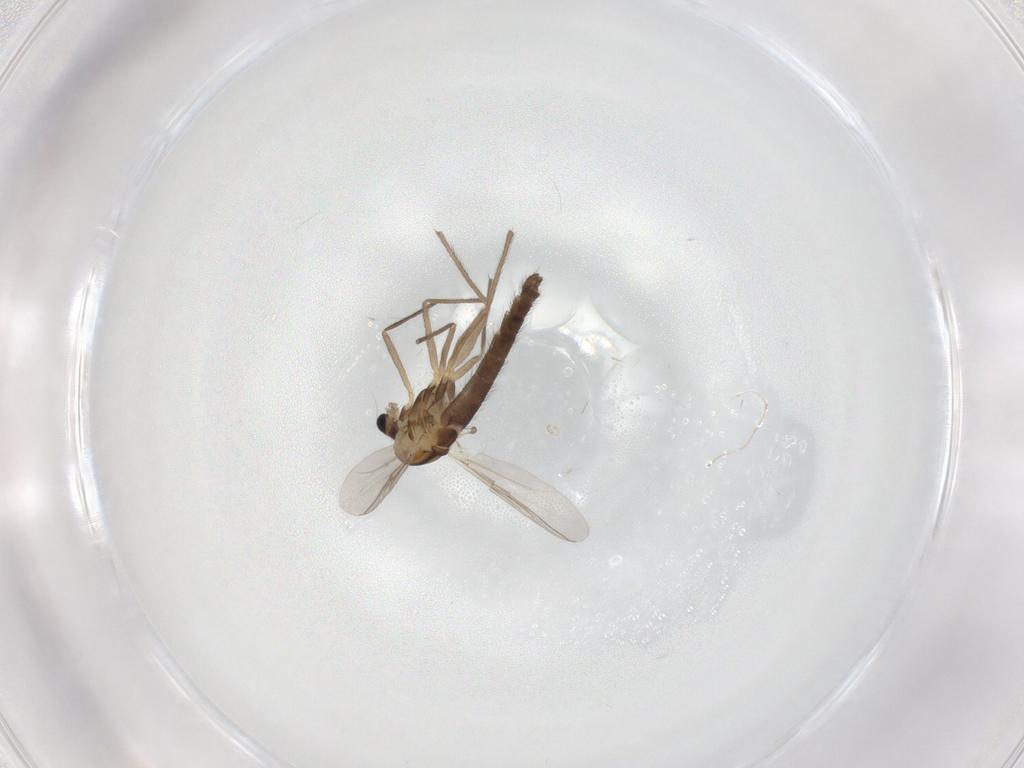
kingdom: Animalia
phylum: Arthropoda
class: Insecta
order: Diptera
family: Chironomidae
